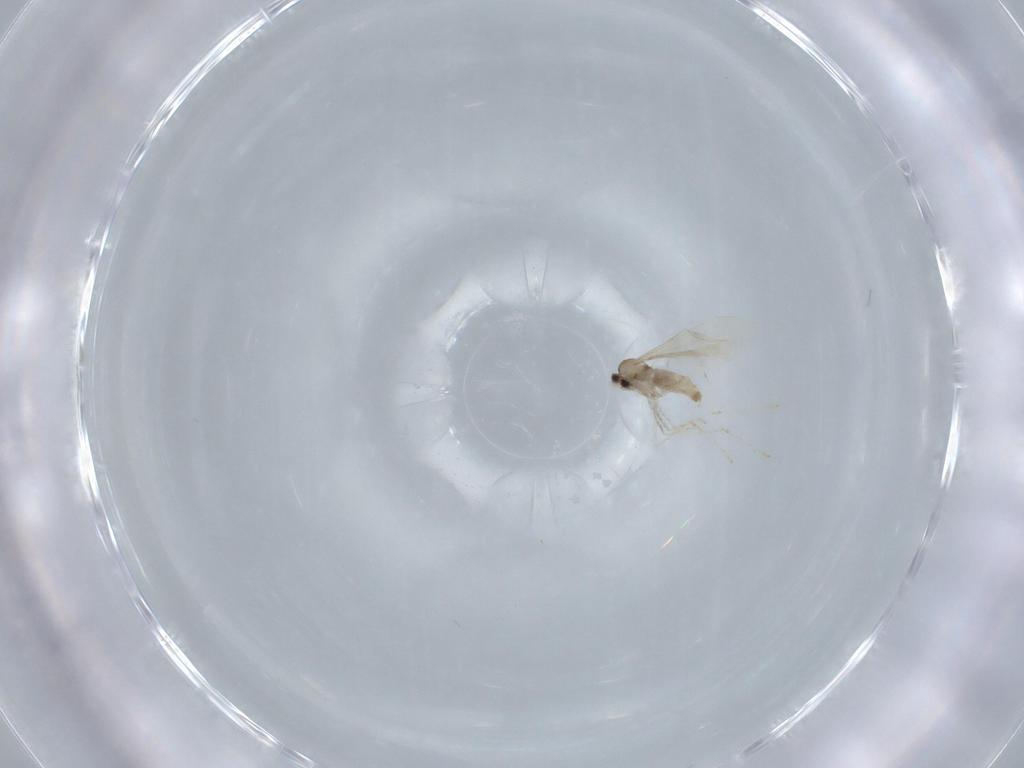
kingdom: Animalia
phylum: Arthropoda
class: Insecta
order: Diptera
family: Cecidomyiidae
